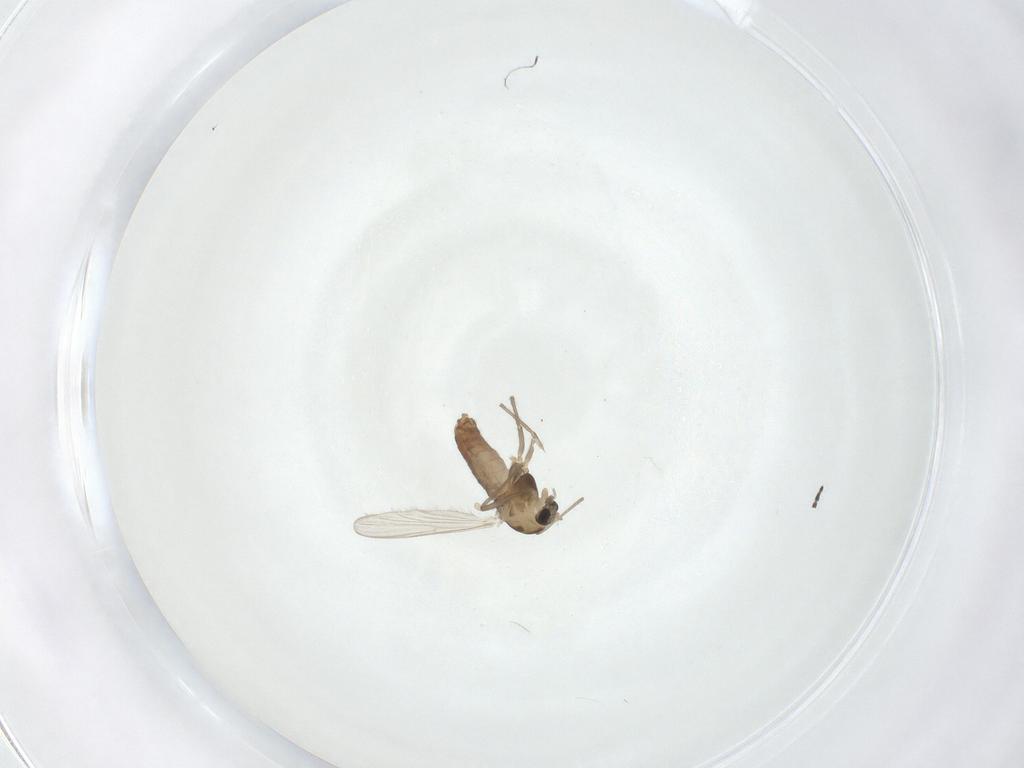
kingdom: Animalia
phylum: Arthropoda
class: Insecta
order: Diptera
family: Chironomidae
